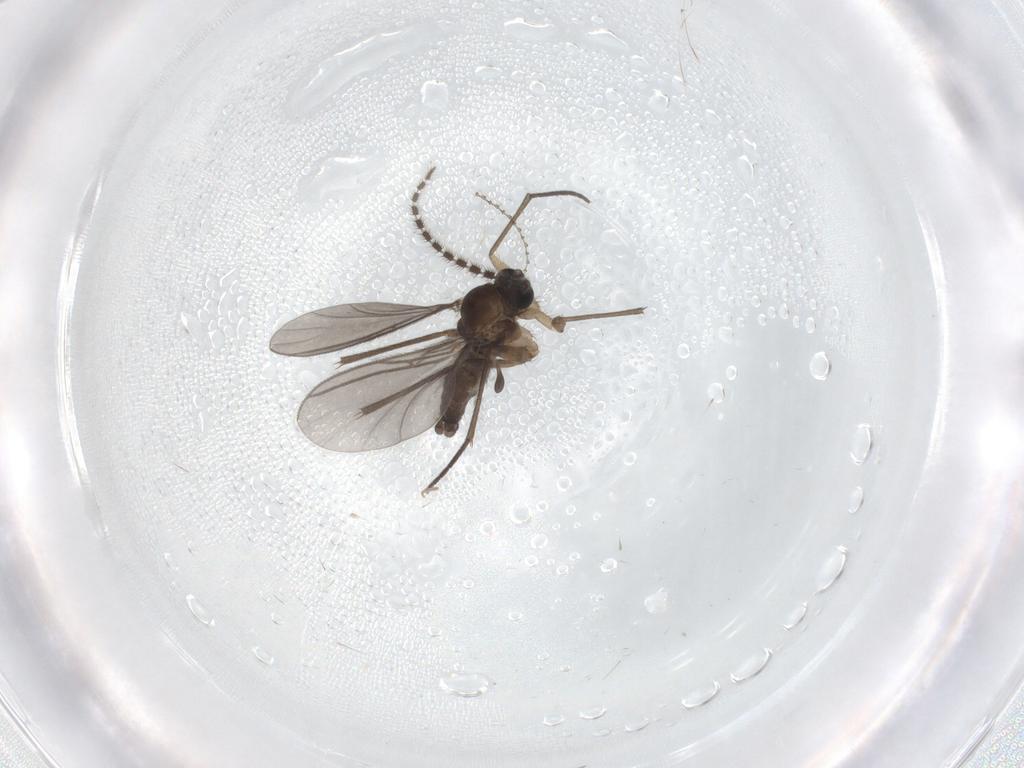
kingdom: Animalia
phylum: Arthropoda
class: Insecta
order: Diptera
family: Sciaridae
